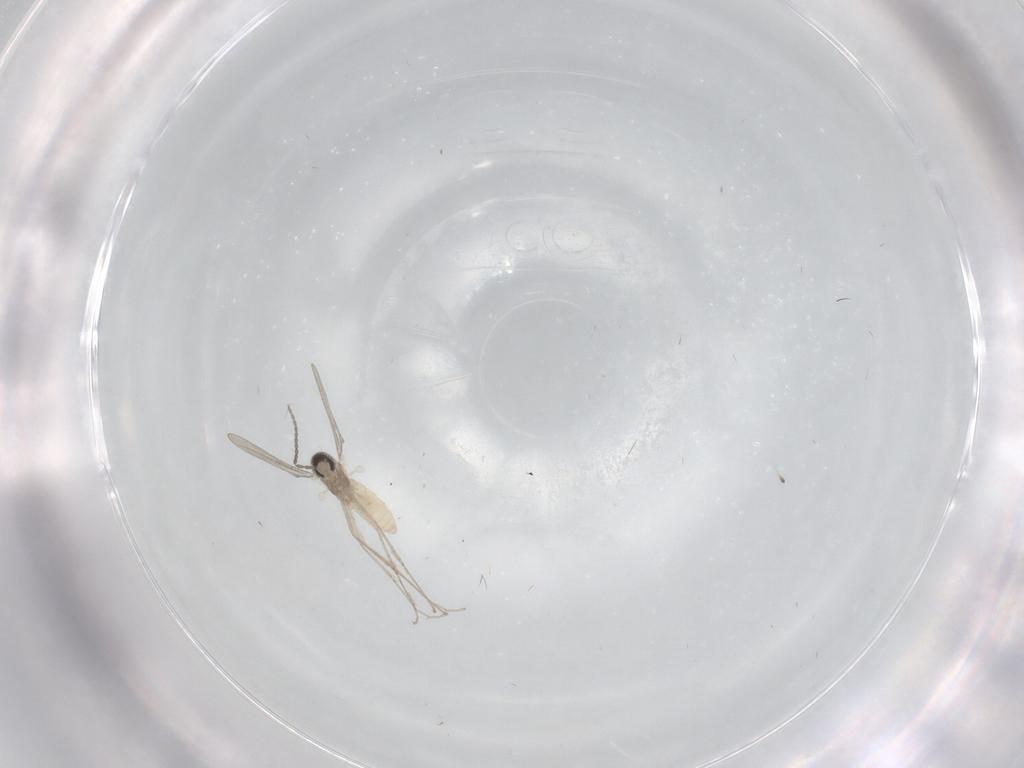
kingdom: Animalia
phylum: Arthropoda
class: Insecta
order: Diptera
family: Cecidomyiidae
